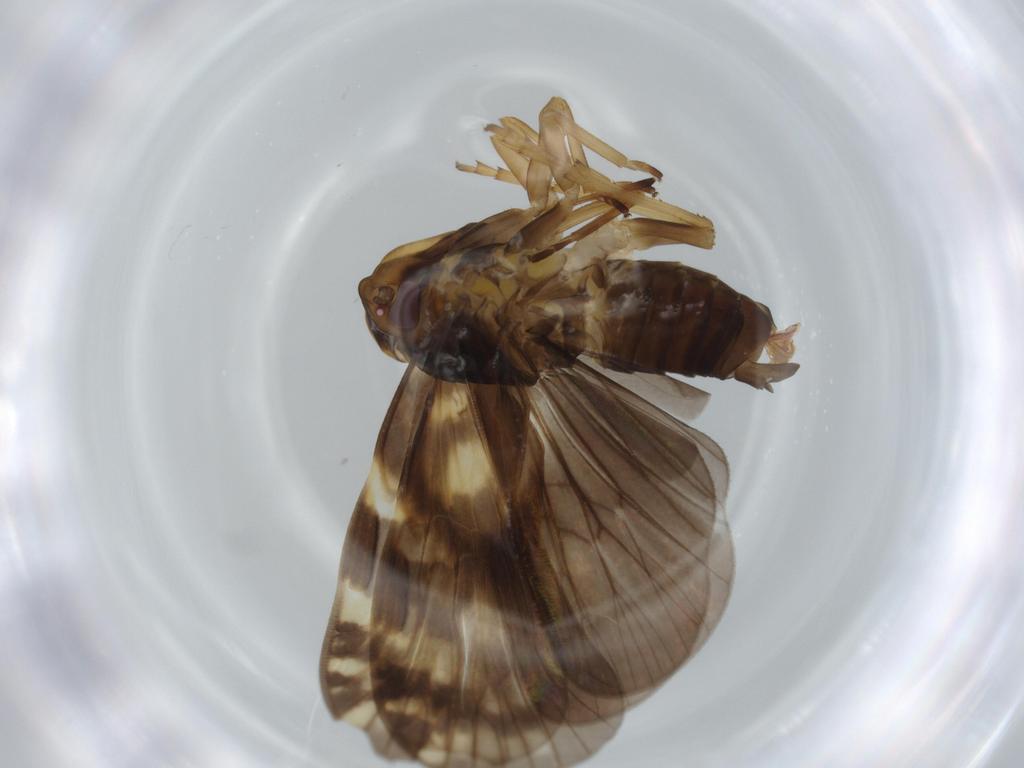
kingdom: Animalia
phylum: Arthropoda
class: Insecta
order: Hemiptera
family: Cixiidae
